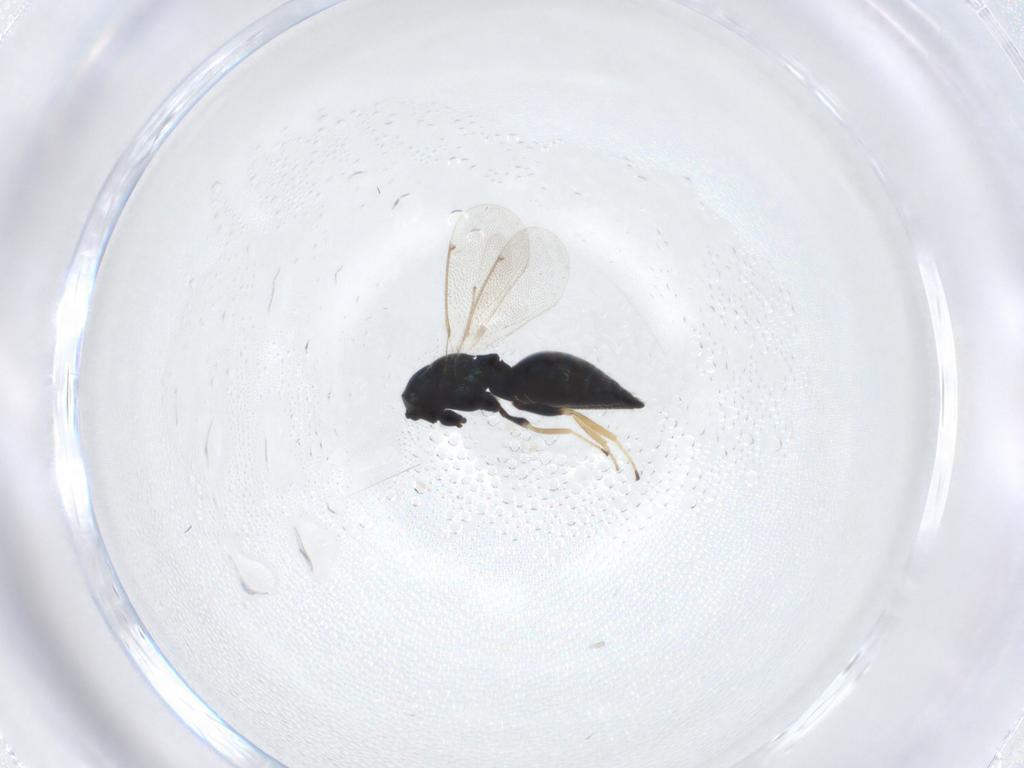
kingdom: Animalia
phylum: Arthropoda
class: Insecta
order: Hymenoptera
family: Eulophidae
